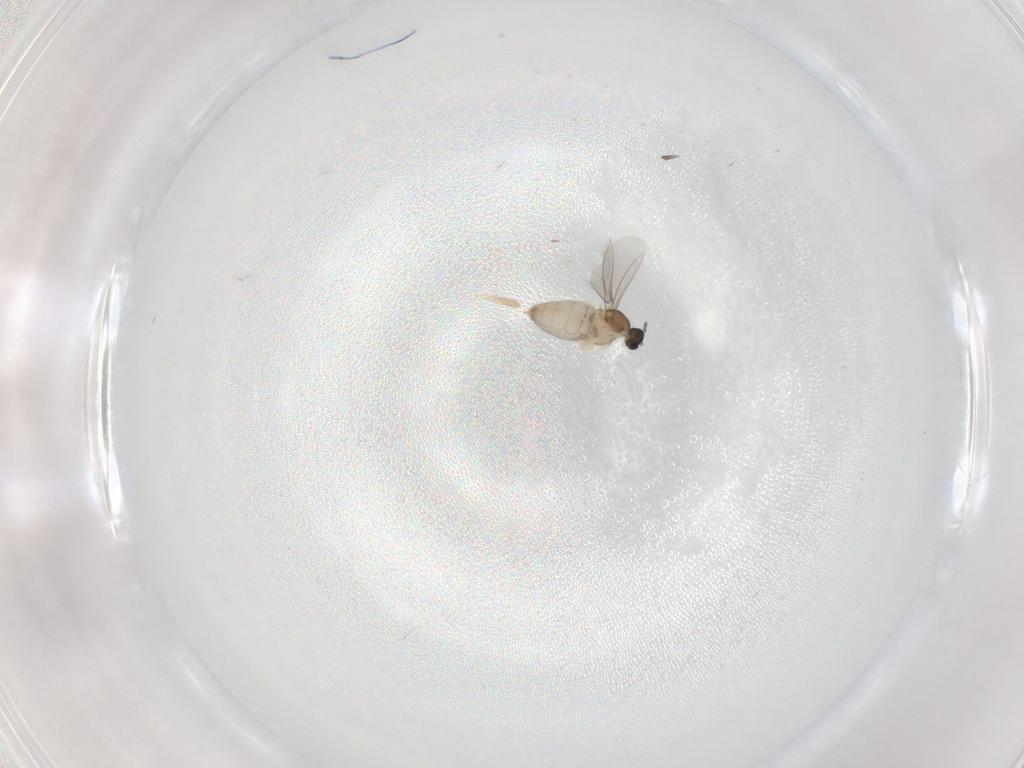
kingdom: Animalia
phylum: Arthropoda
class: Insecta
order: Diptera
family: Cecidomyiidae
